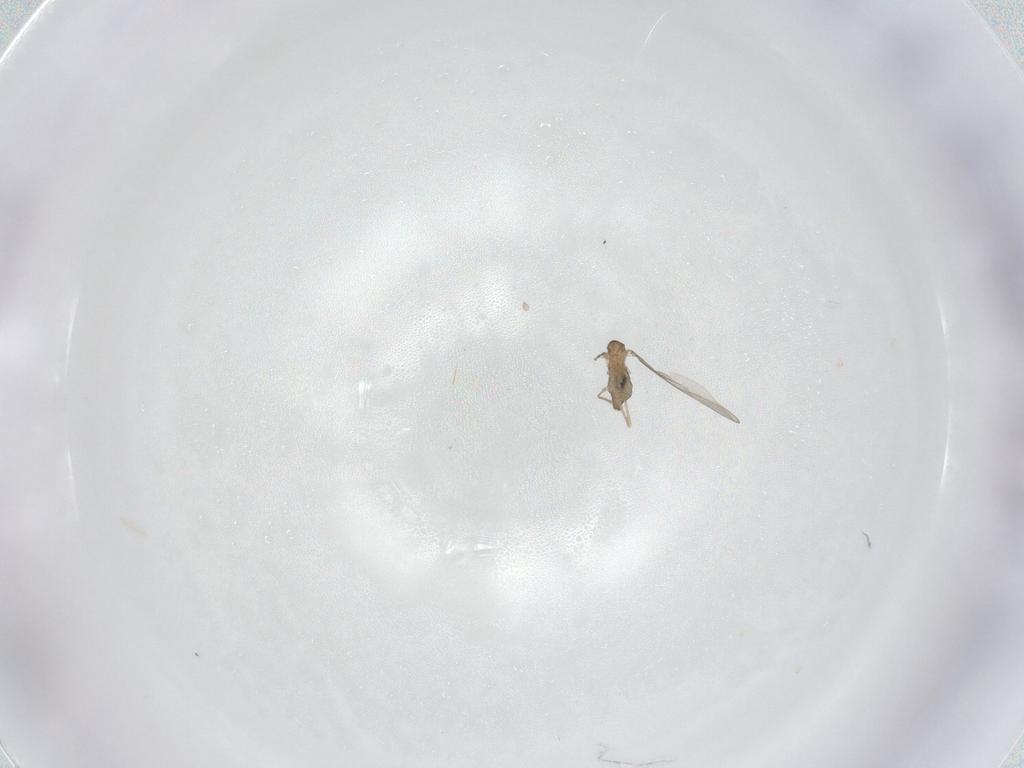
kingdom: Animalia
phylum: Arthropoda
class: Insecta
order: Diptera
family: Cecidomyiidae
